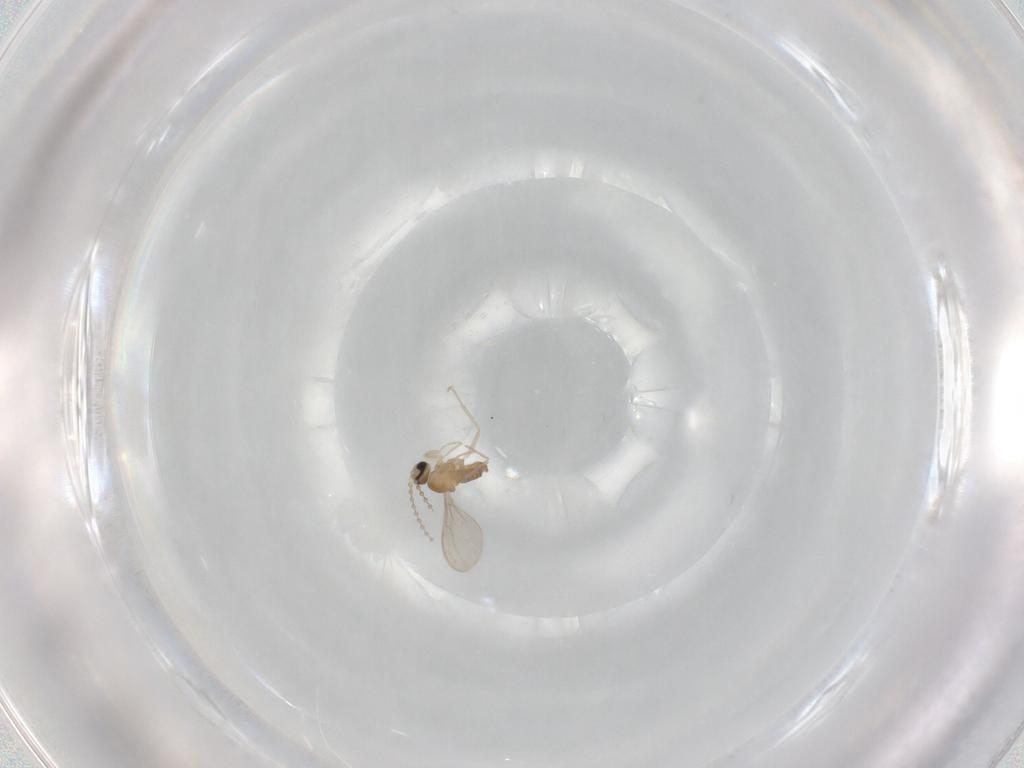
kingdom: Animalia
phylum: Arthropoda
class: Insecta
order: Diptera
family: Cecidomyiidae
